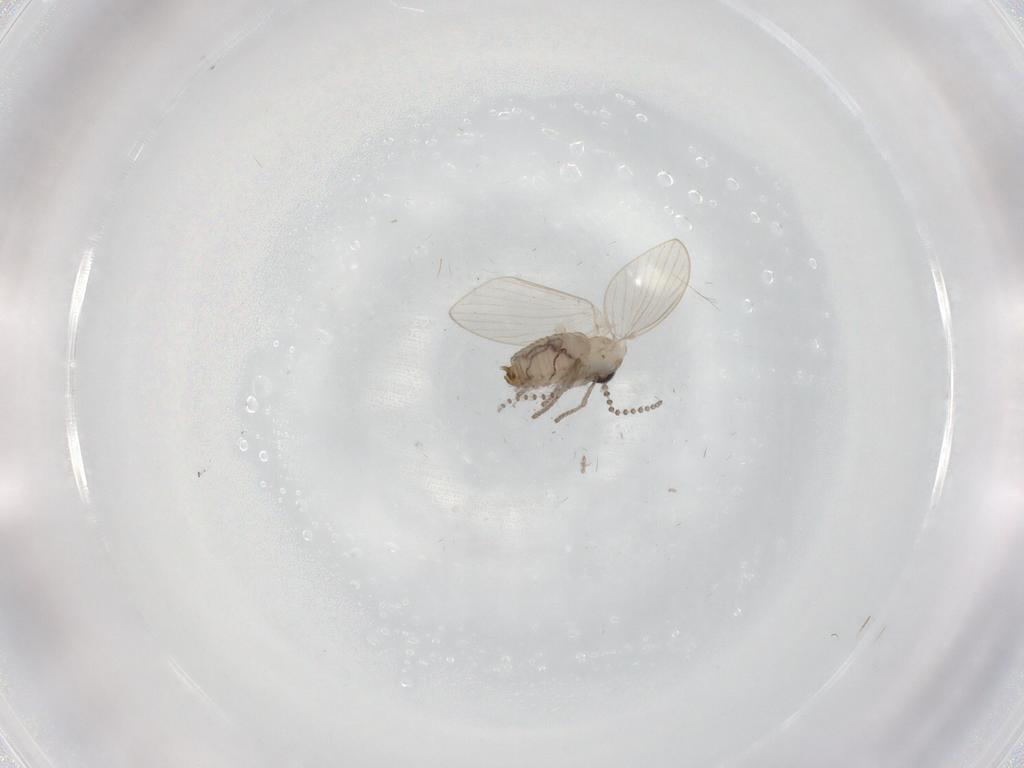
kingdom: Animalia
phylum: Arthropoda
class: Insecta
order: Diptera
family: Psychodidae
